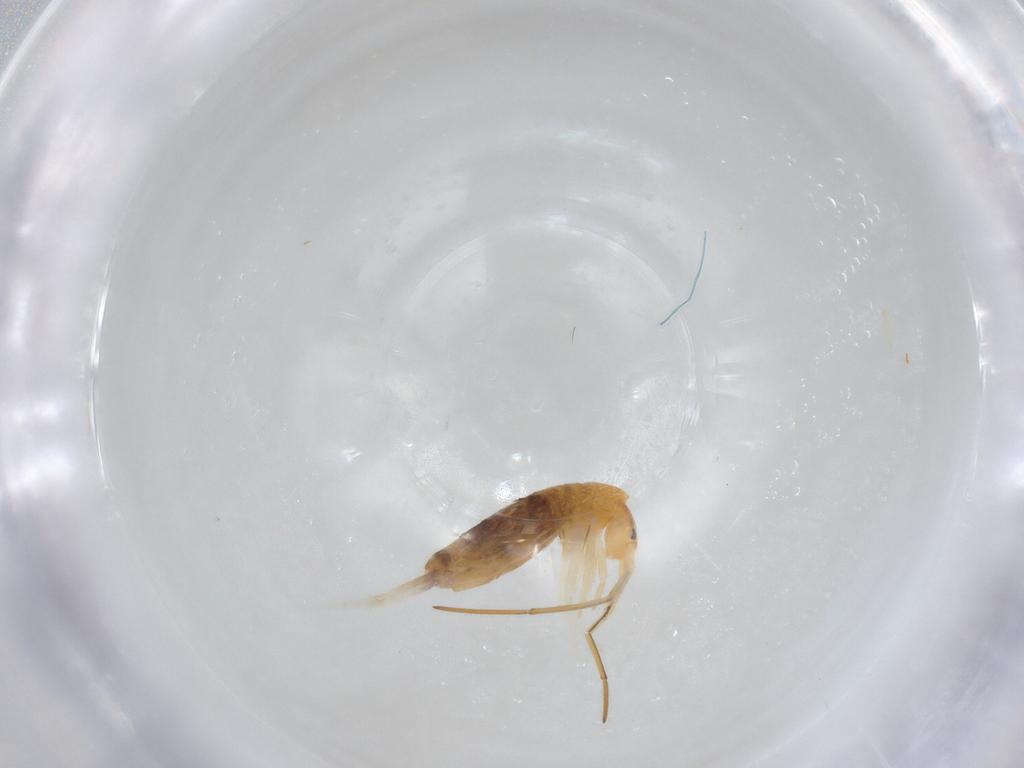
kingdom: Animalia
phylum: Arthropoda
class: Collembola
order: Entomobryomorpha
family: Entomobryidae
